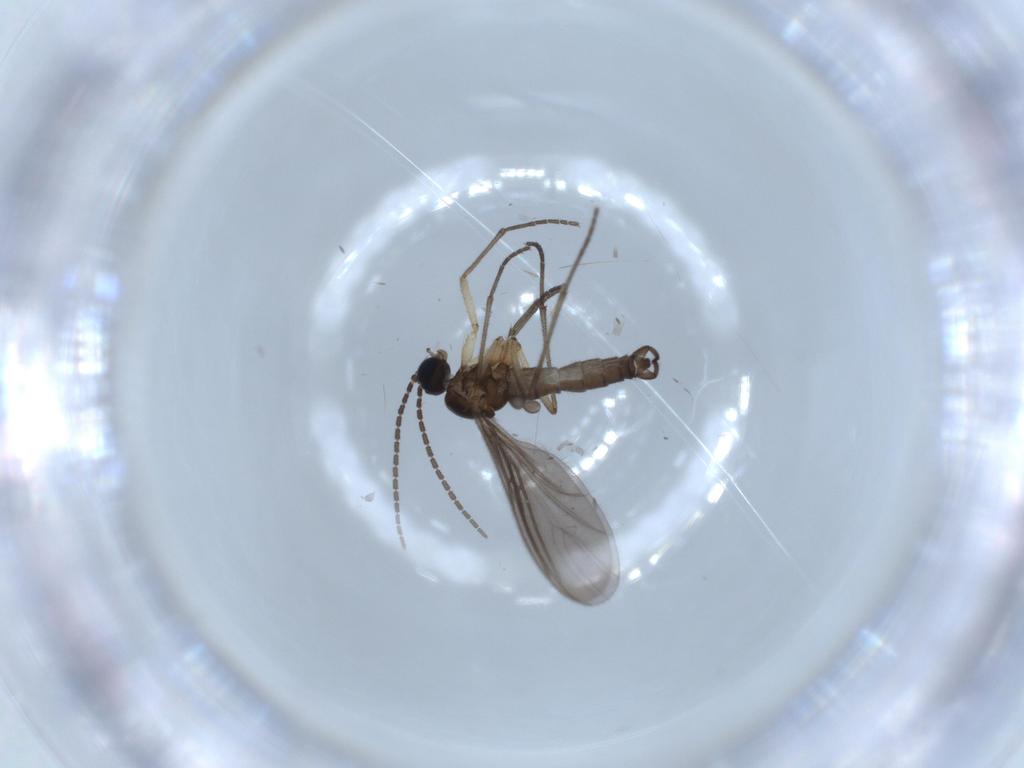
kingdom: Animalia
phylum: Arthropoda
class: Insecta
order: Diptera
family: Sciaridae
